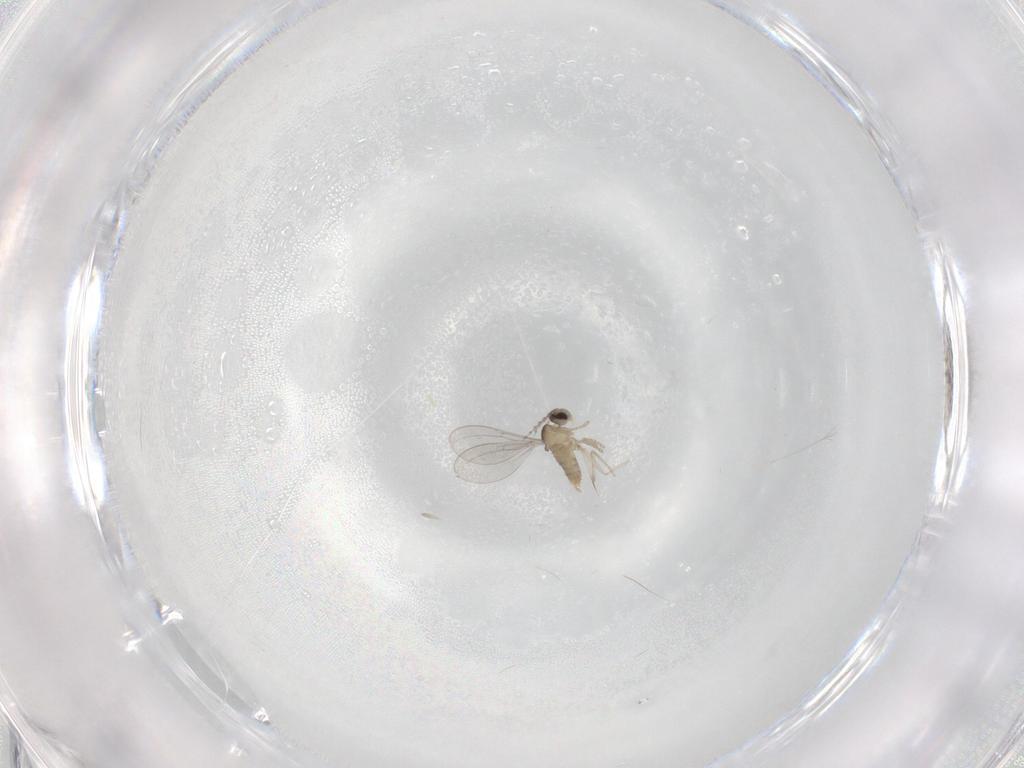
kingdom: Animalia
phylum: Arthropoda
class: Insecta
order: Diptera
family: Cecidomyiidae
